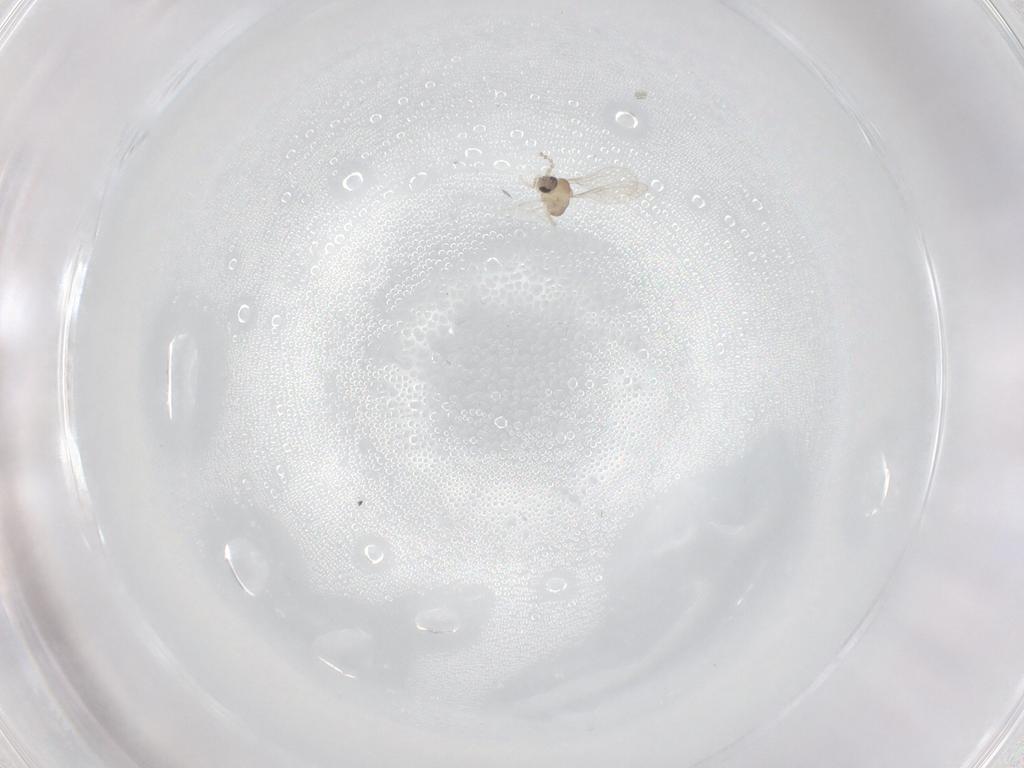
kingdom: Animalia
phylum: Arthropoda
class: Insecta
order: Diptera
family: Cecidomyiidae
